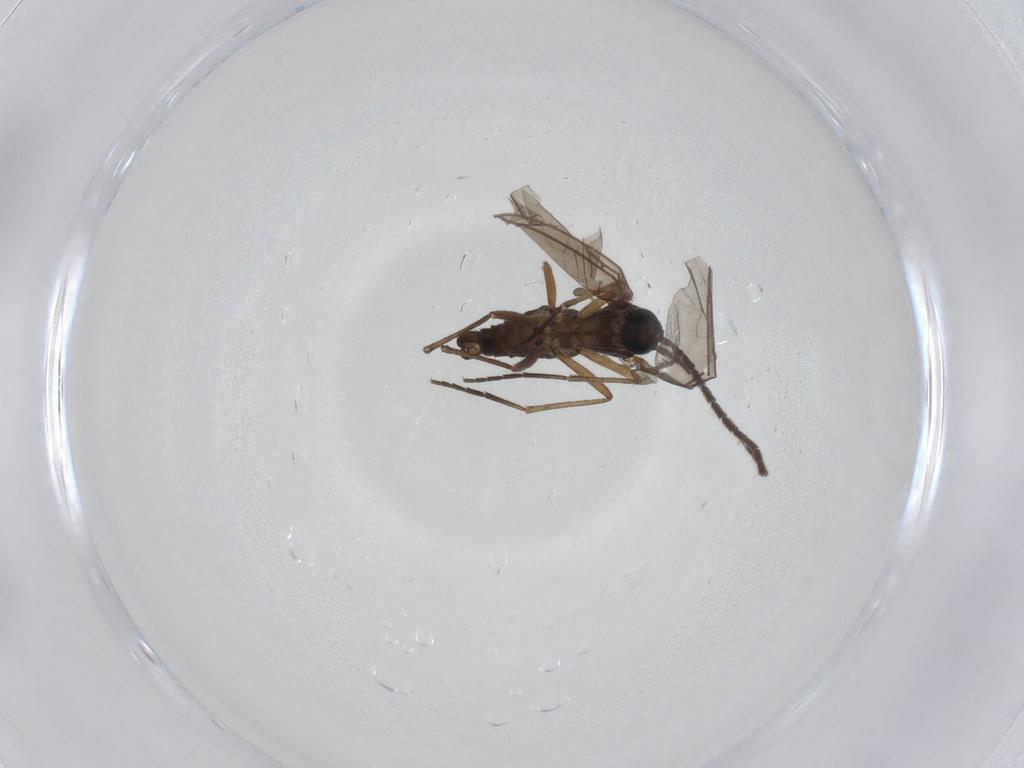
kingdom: Animalia
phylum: Arthropoda
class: Insecta
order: Diptera
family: Sciaridae
